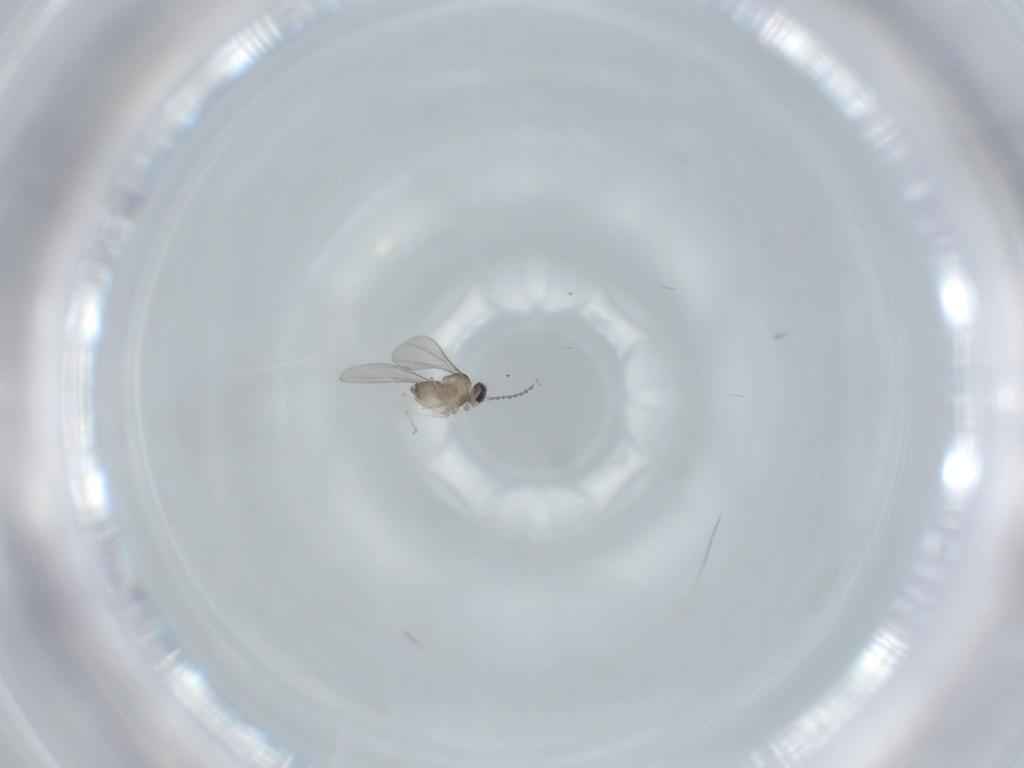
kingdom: Animalia
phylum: Arthropoda
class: Insecta
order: Diptera
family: Cecidomyiidae
